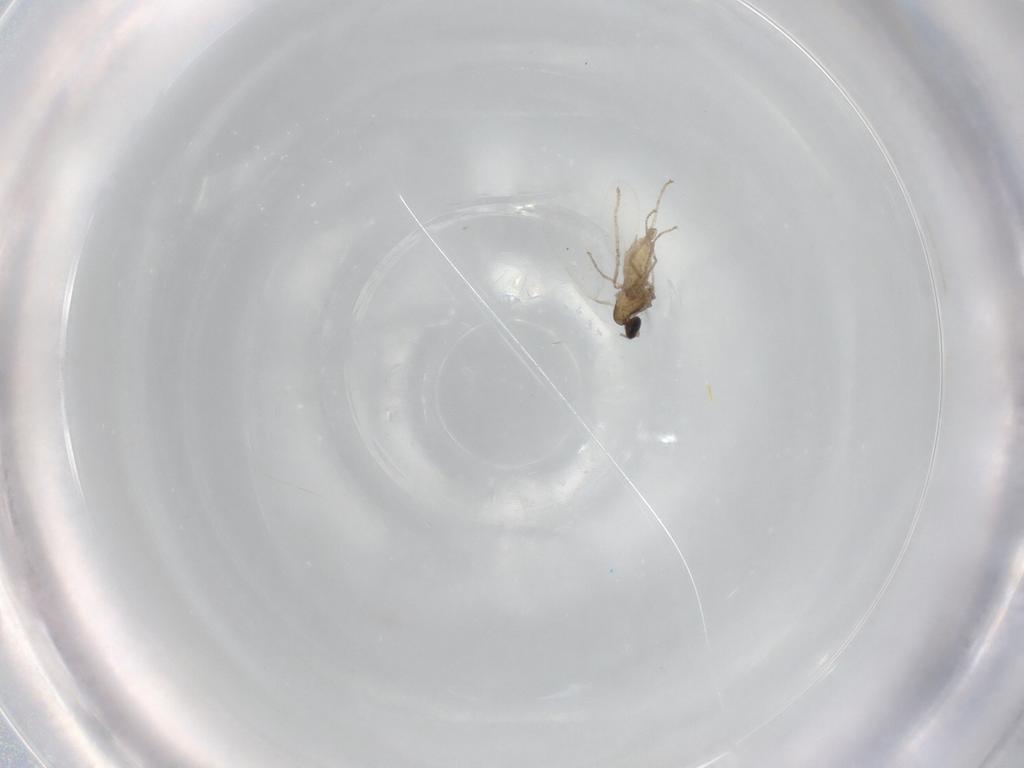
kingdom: Animalia
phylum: Arthropoda
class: Insecta
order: Diptera
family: Cecidomyiidae
